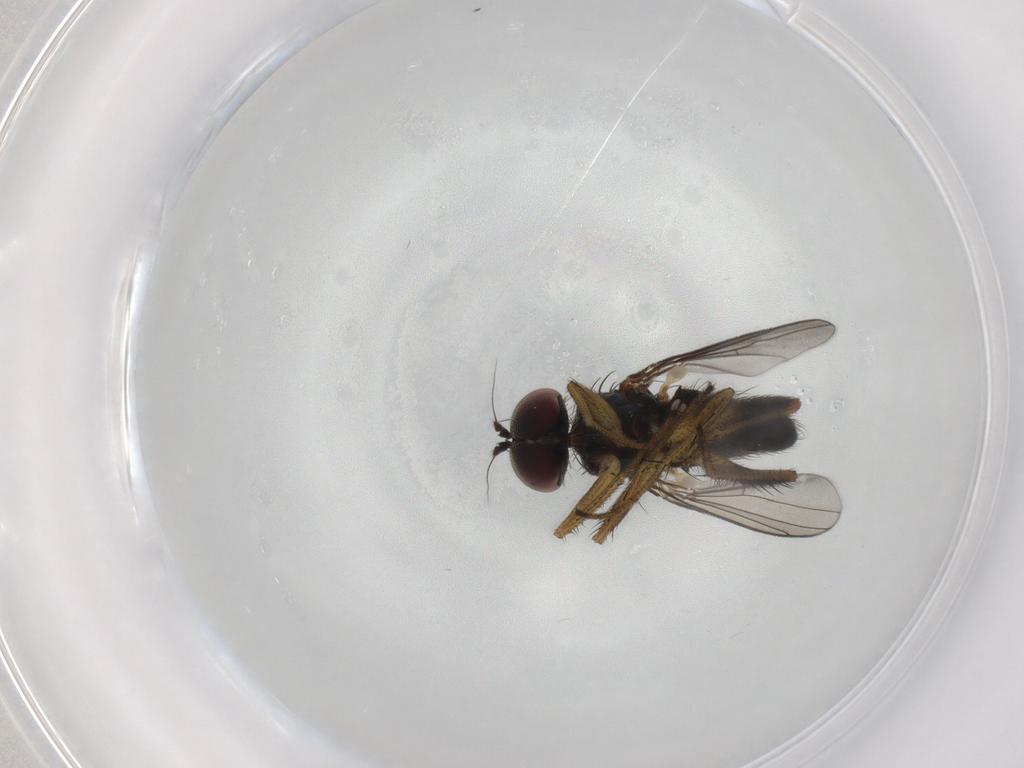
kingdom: Animalia
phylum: Arthropoda
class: Insecta
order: Diptera
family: Dolichopodidae
